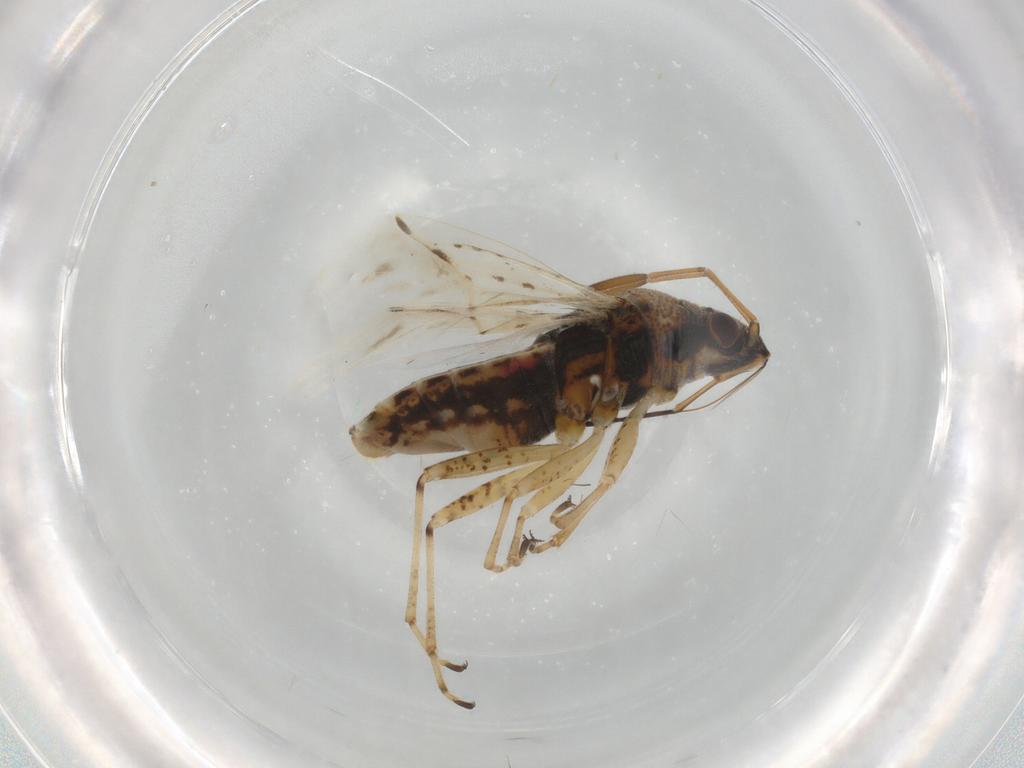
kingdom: Animalia
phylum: Arthropoda
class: Insecta
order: Hemiptera
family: Lygaeidae
